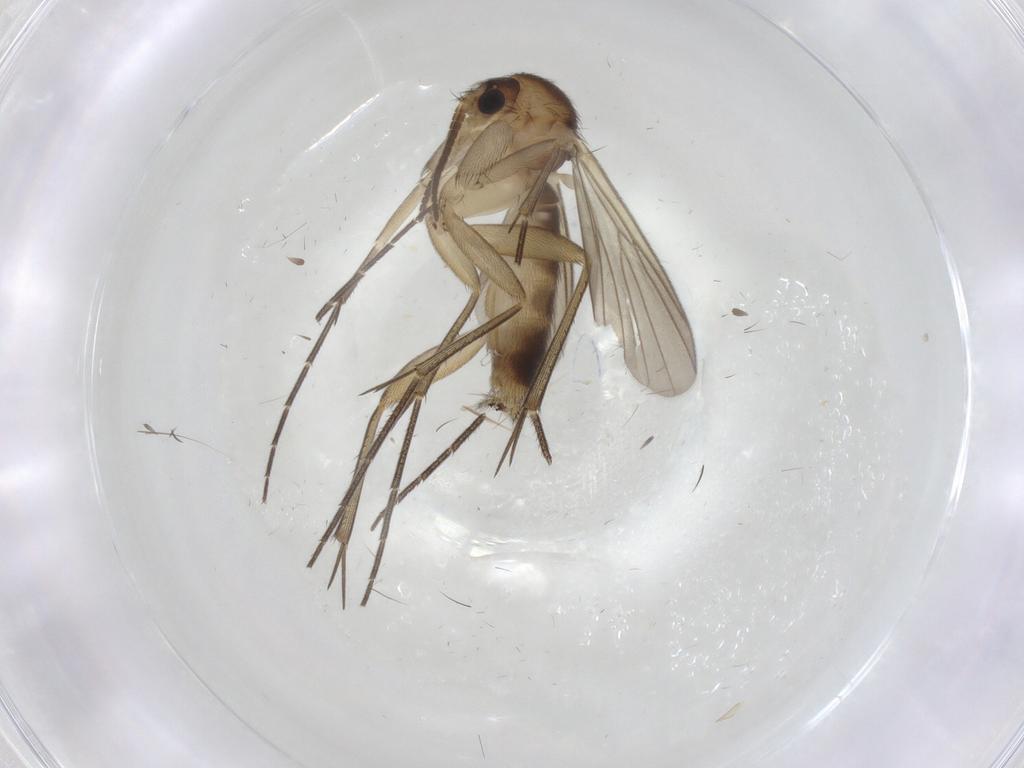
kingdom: Animalia
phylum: Arthropoda
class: Insecta
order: Diptera
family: Mycetophilidae
